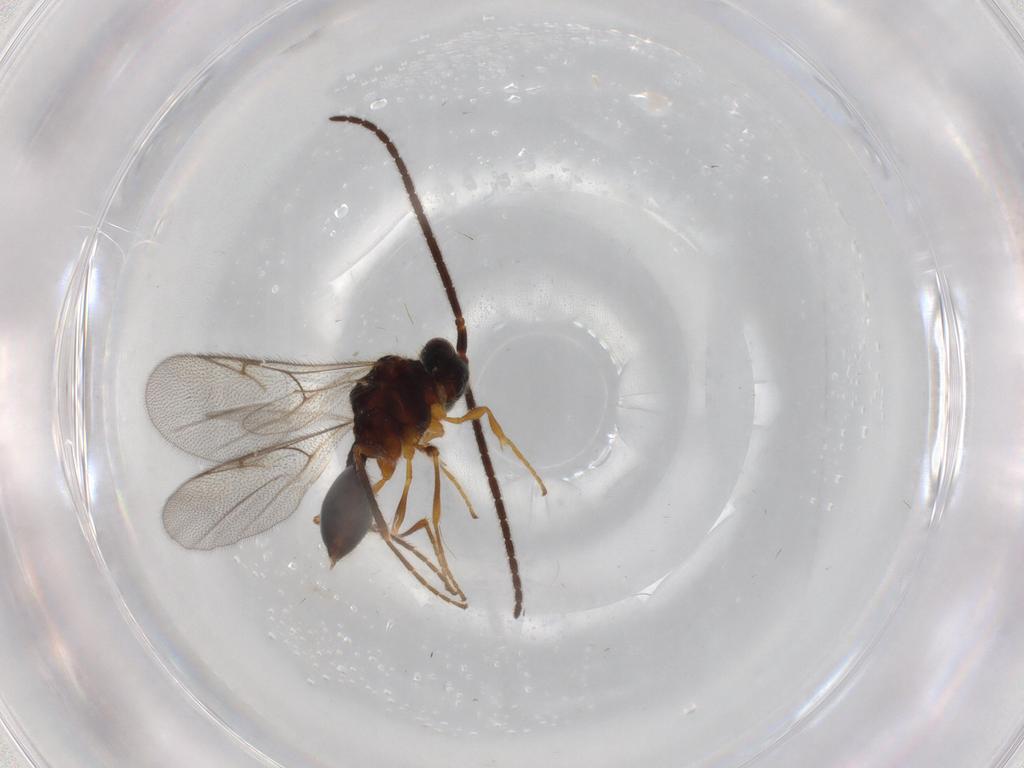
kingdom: Animalia
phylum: Arthropoda
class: Insecta
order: Hymenoptera
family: Diapriidae
